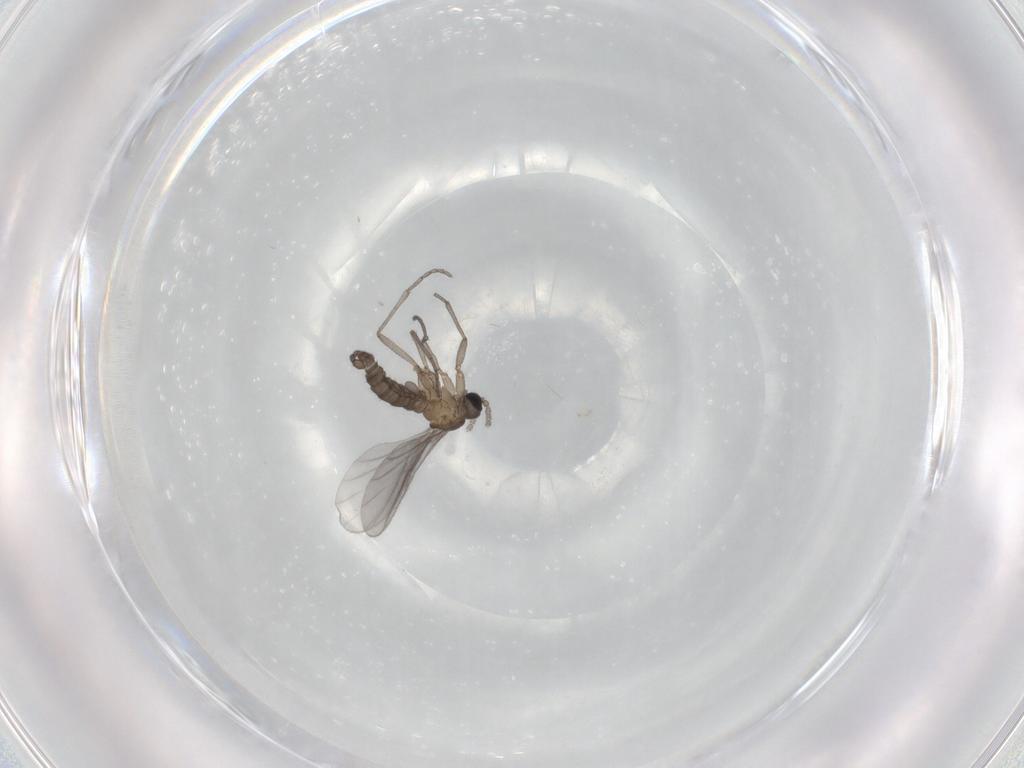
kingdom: Animalia
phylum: Arthropoda
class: Insecta
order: Diptera
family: Sciaridae
